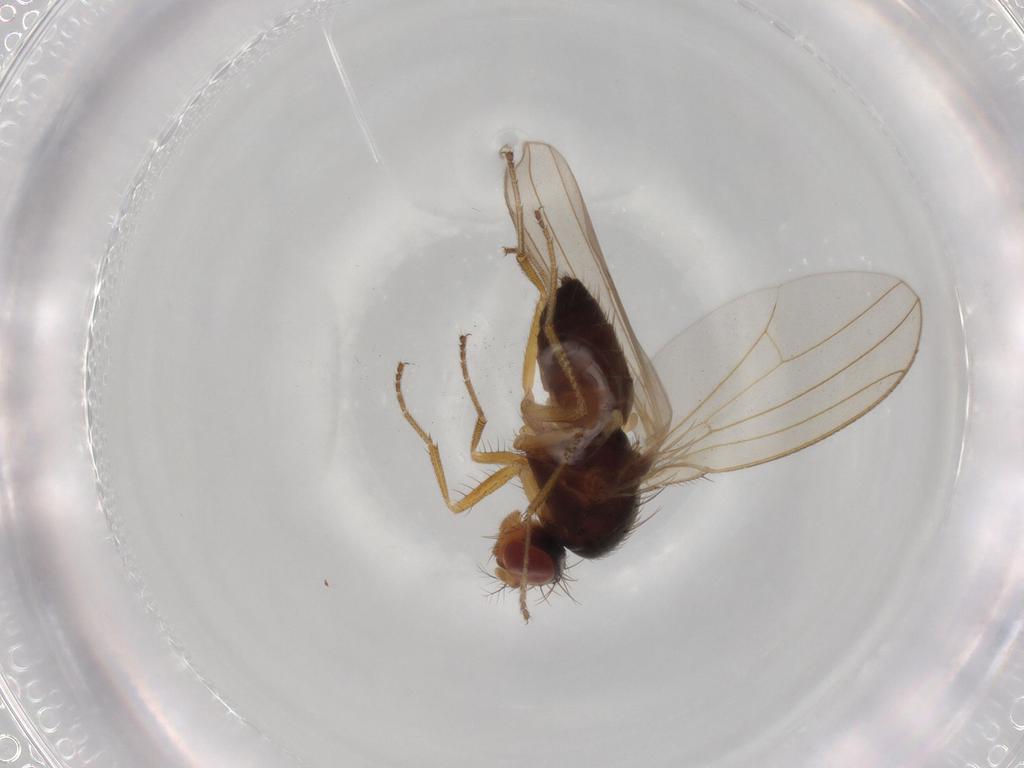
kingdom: Animalia
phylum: Arthropoda
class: Insecta
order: Diptera
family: Drosophilidae
